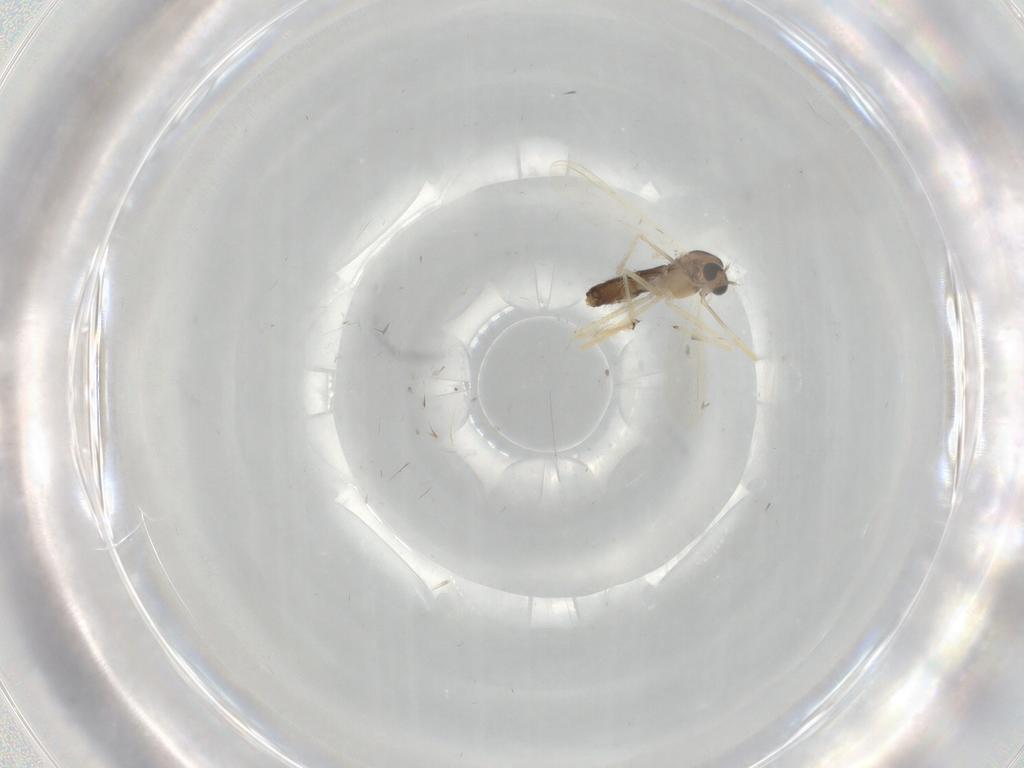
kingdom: Animalia
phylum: Arthropoda
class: Insecta
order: Diptera
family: Chironomidae
